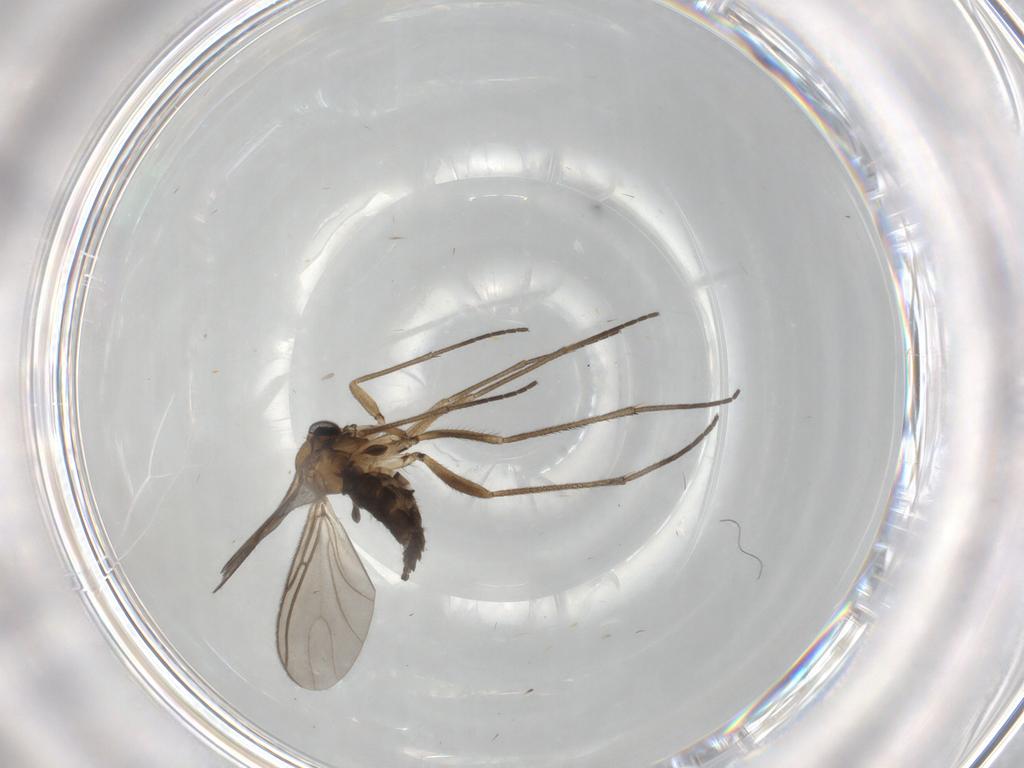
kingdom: Animalia
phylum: Arthropoda
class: Insecta
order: Diptera
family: Sciaridae
